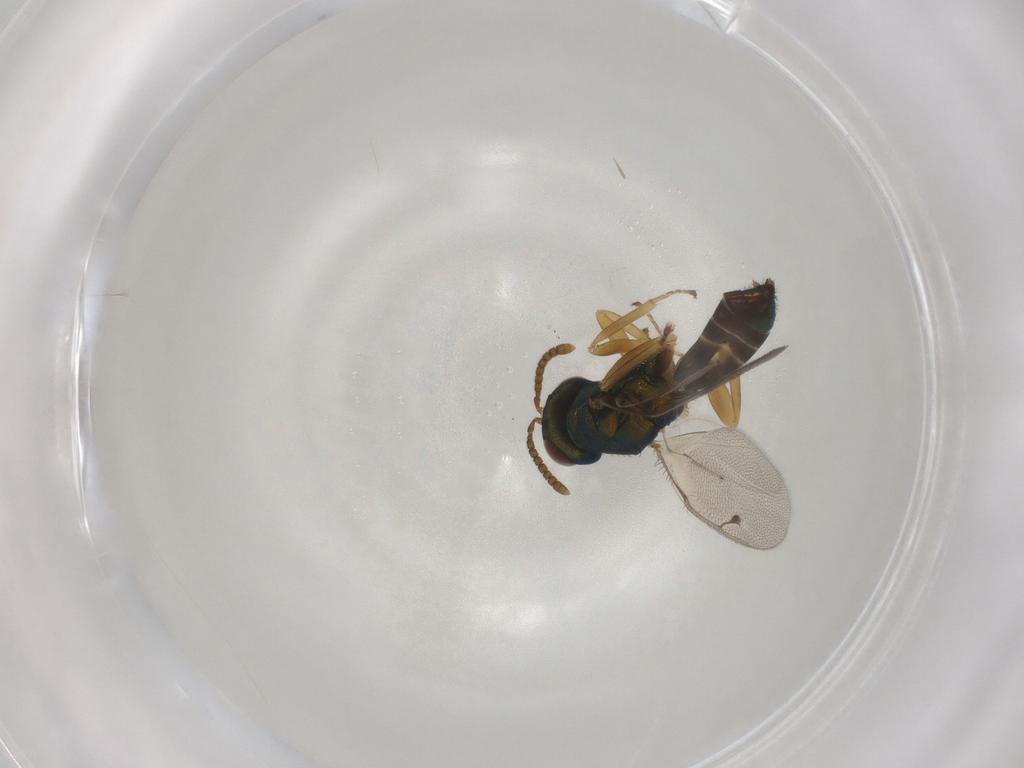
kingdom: Animalia
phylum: Arthropoda
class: Insecta
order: Hymenoptera
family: Pteromalidae
